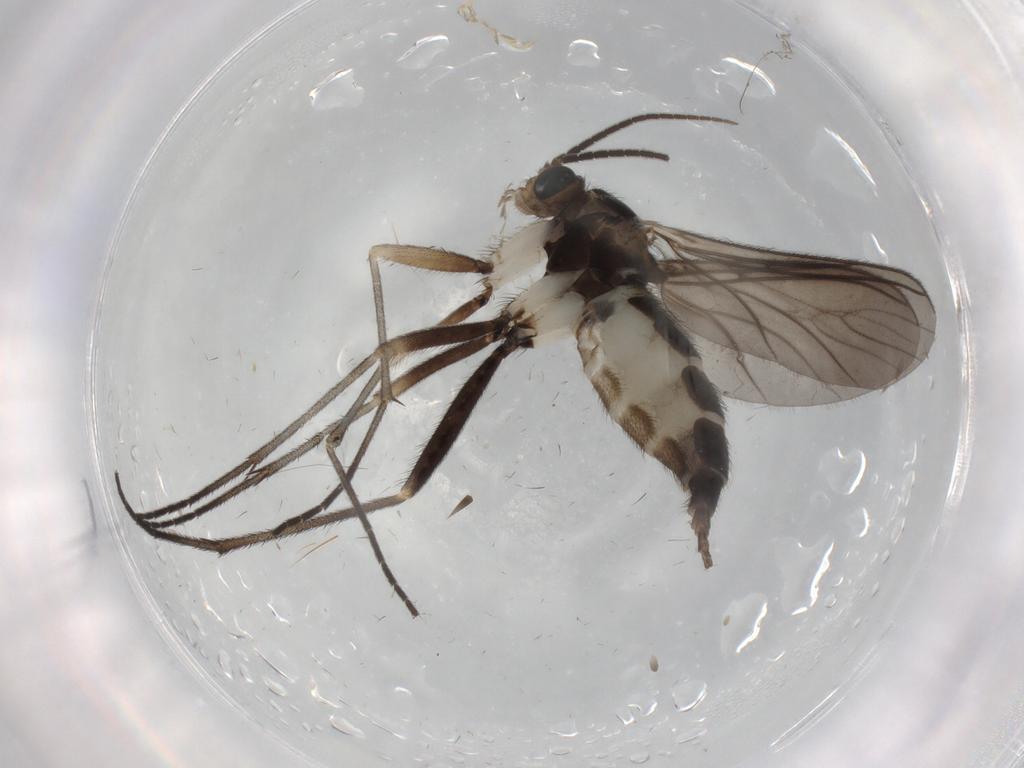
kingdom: Animalia
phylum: Arthropoda
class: Insecta
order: Diptera
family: Sciaridae
